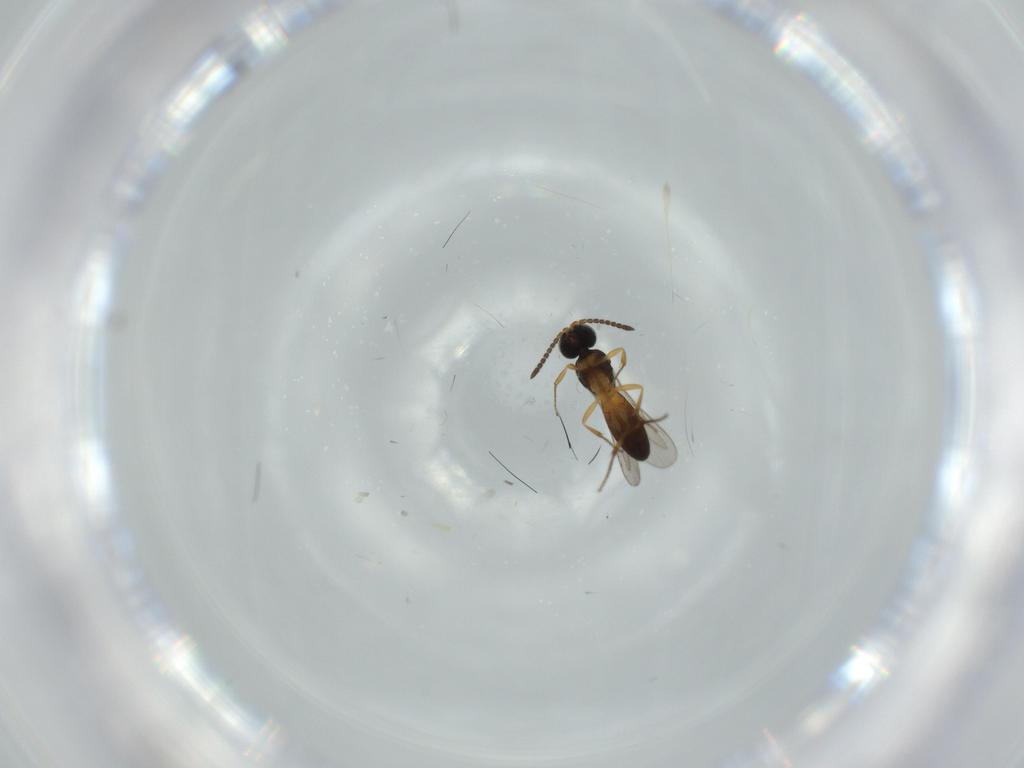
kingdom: Animalia
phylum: Arthropoda
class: Insecta
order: Hymenoptera
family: Scelionidae
